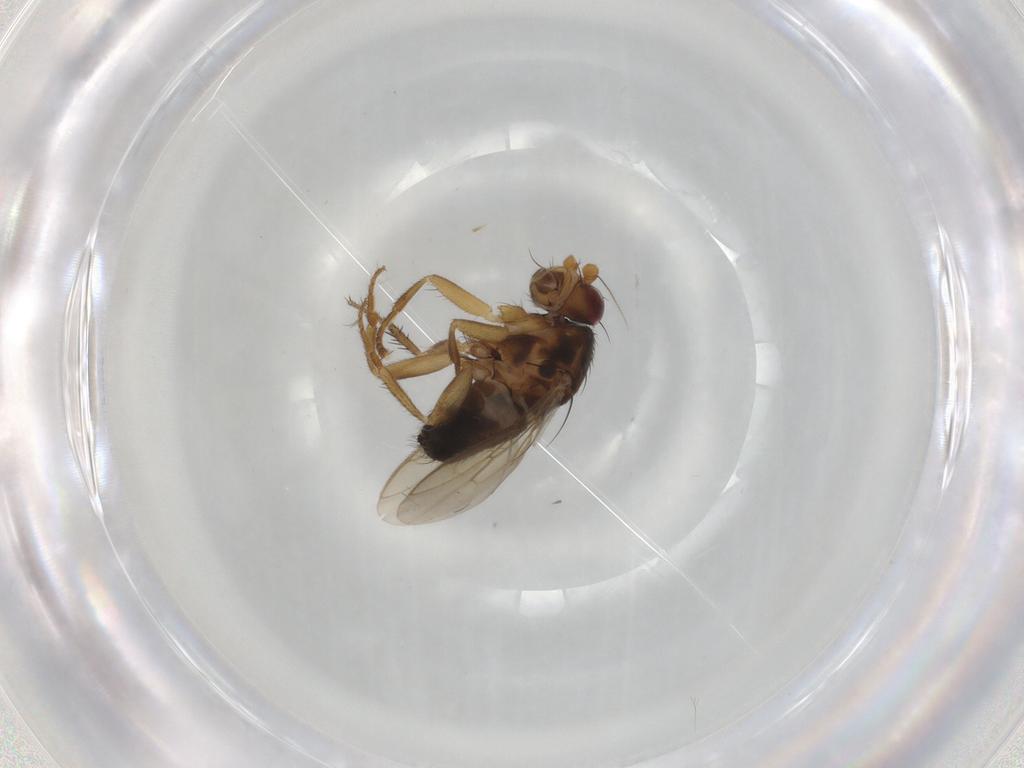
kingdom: Animalia
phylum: Arthropoda
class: Insecta
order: Diptera
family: Sphaeroceridae
